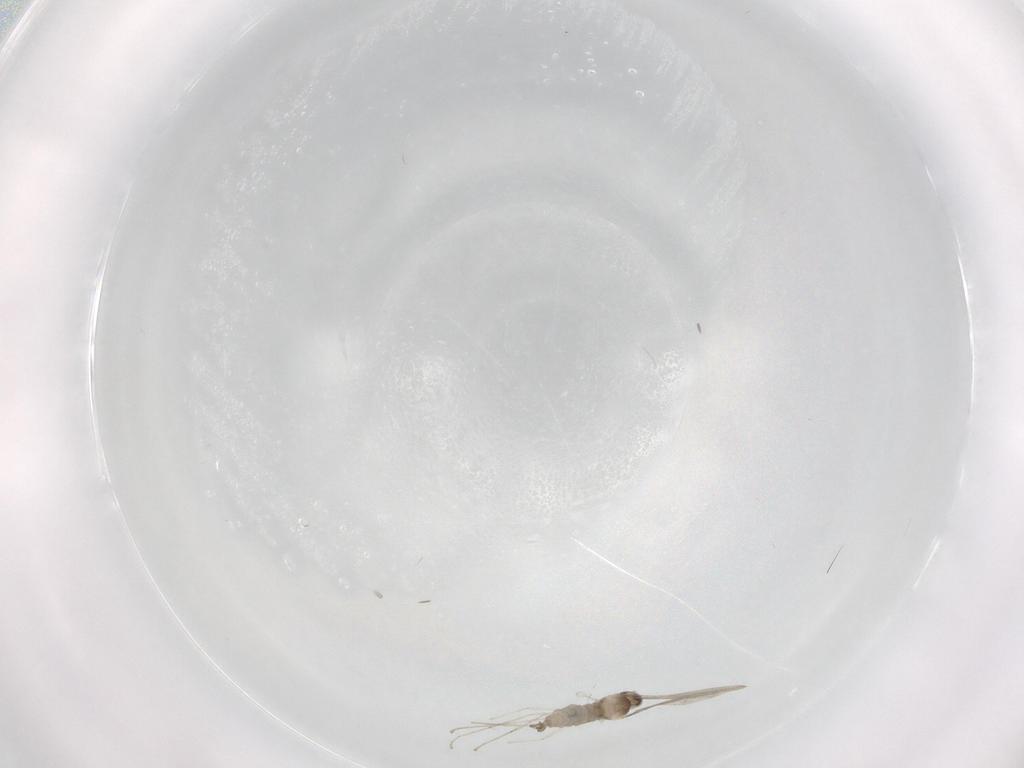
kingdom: Animalia
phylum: Arthropoda
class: Insecta
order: Diptera
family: Cecidomyiidae
